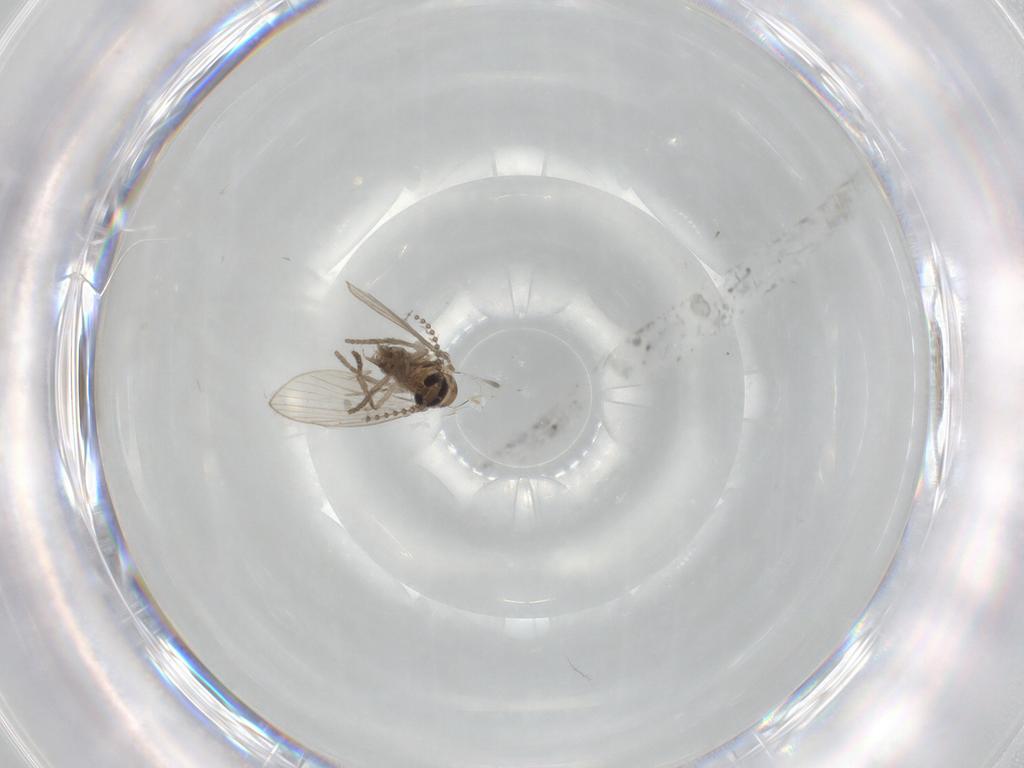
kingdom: Animalia
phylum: Arthropoda
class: Insecta
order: Diptera
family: Psychodidae
